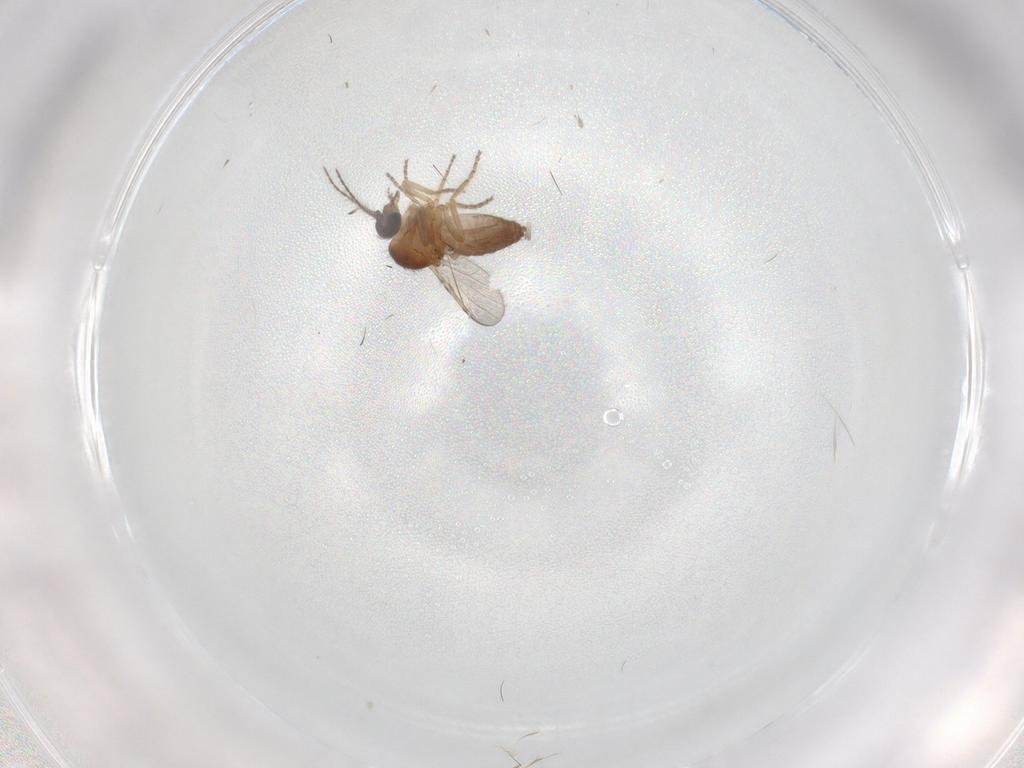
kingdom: Animalia
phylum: Arthropoda
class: Insecta
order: Diptera
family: Ceratopogonidae
